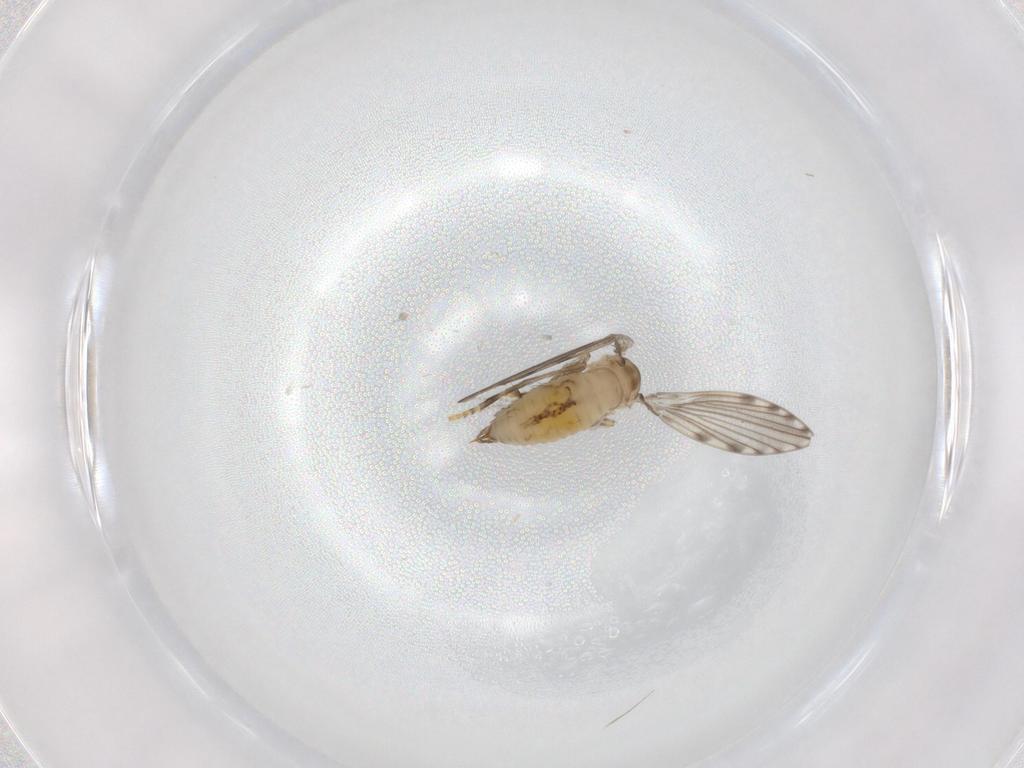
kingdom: Animalia
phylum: Arthropoda
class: Insecta
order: Diptera
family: Psychodidae
